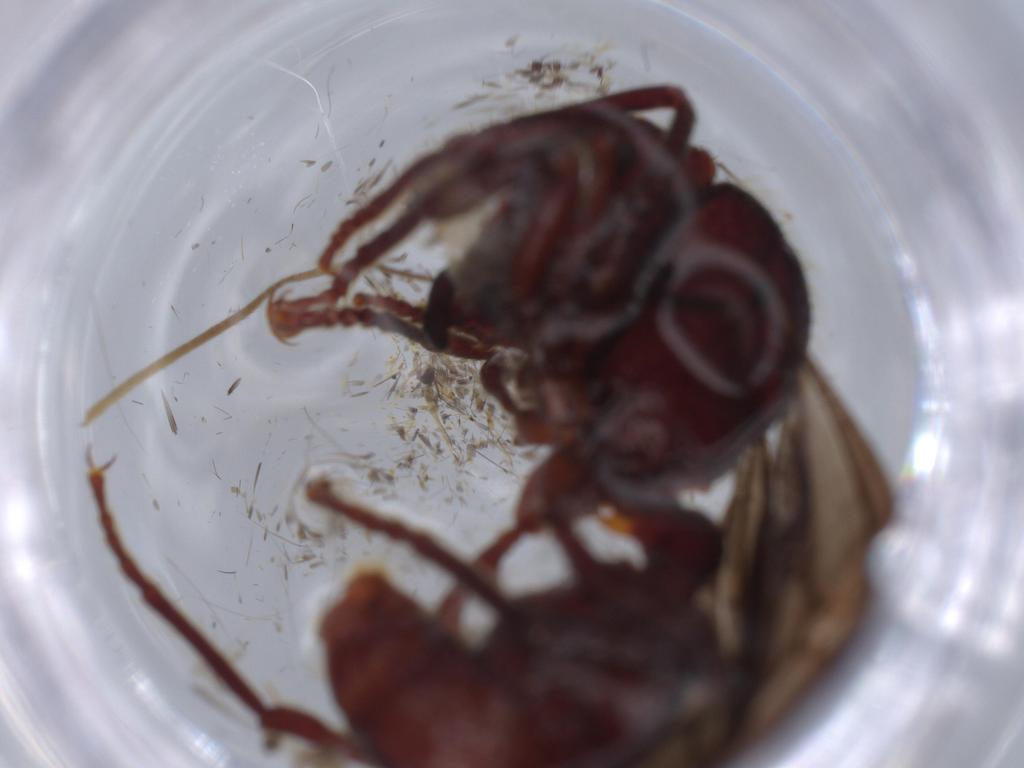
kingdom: Animalia
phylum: Arthropoda
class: Insecta
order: Hymenoptera
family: Formicidae
